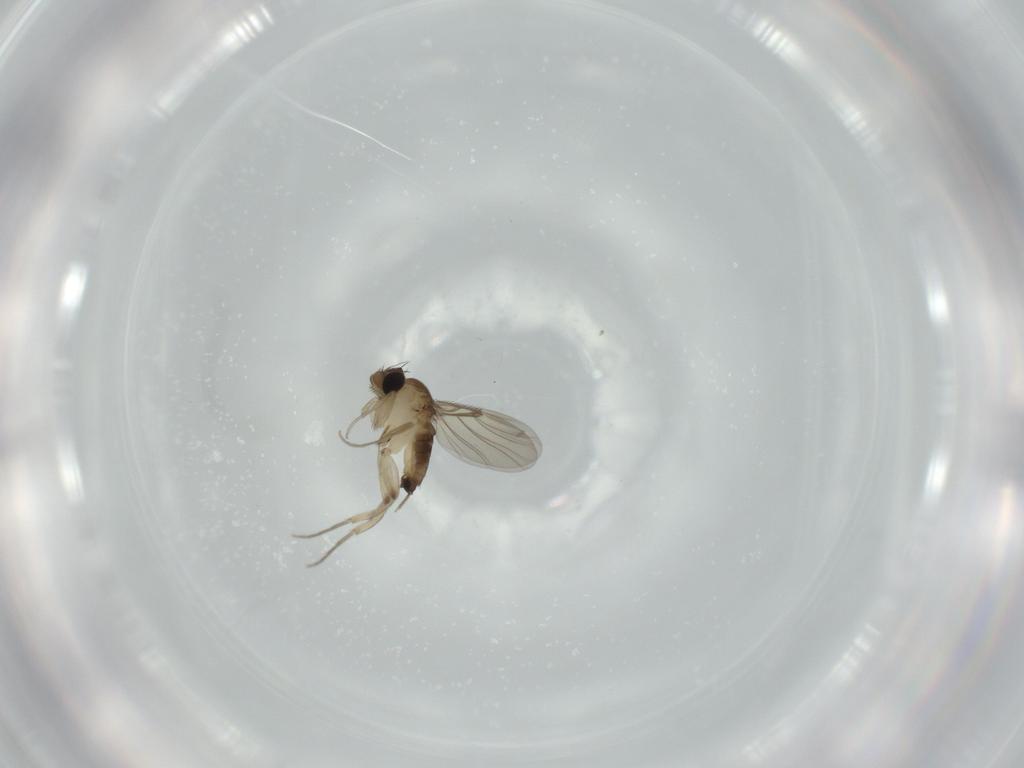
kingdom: Animalia
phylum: Arthropoda
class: Insecta
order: Diptera
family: Phoridae
